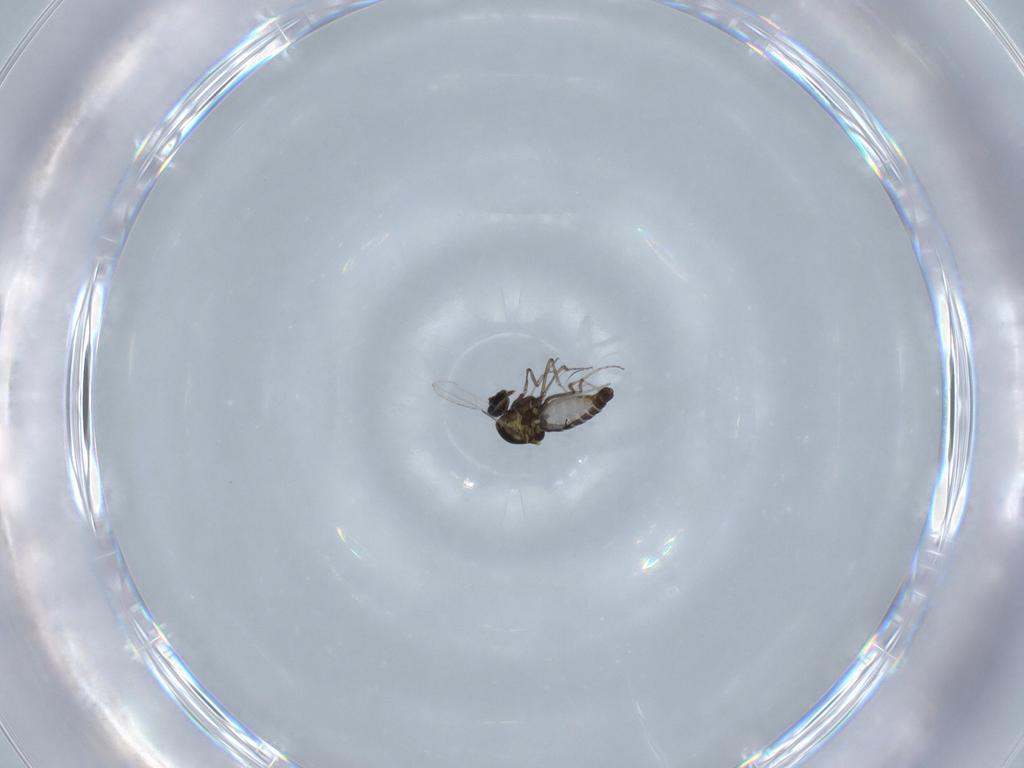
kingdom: Animalia
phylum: Arthropoda
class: Insecta
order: Diptera
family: Ceratopogonidae
